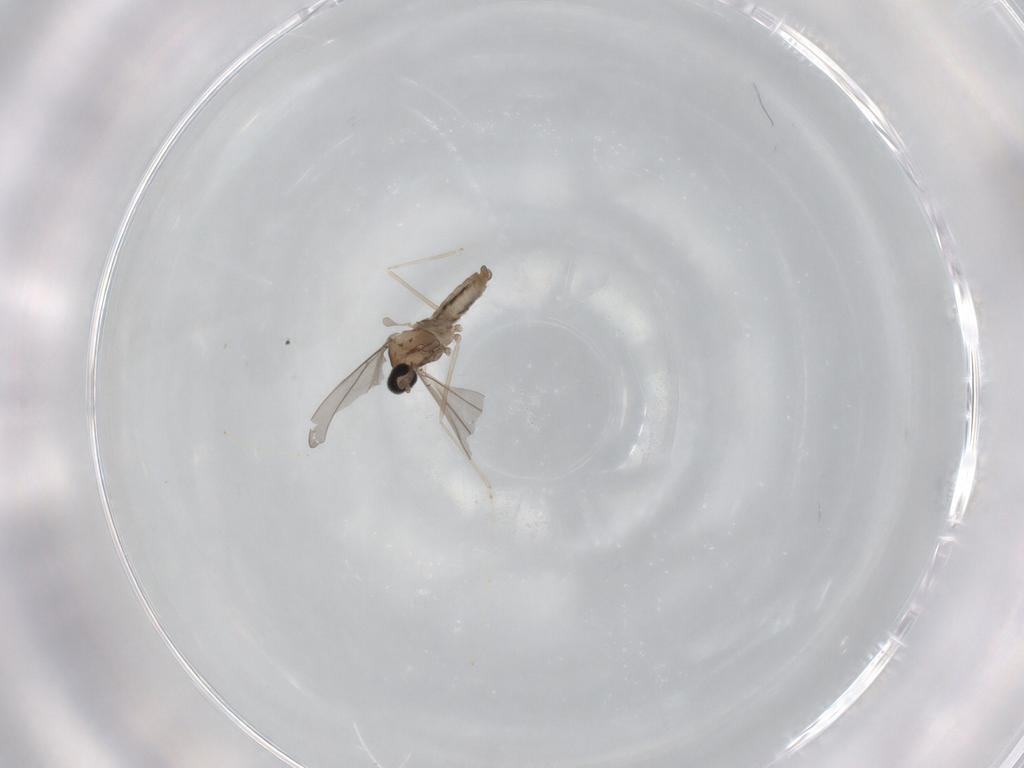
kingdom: Animalia
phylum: Arthropoda
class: Insecta
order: Diptera
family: Cecidomyiidae
